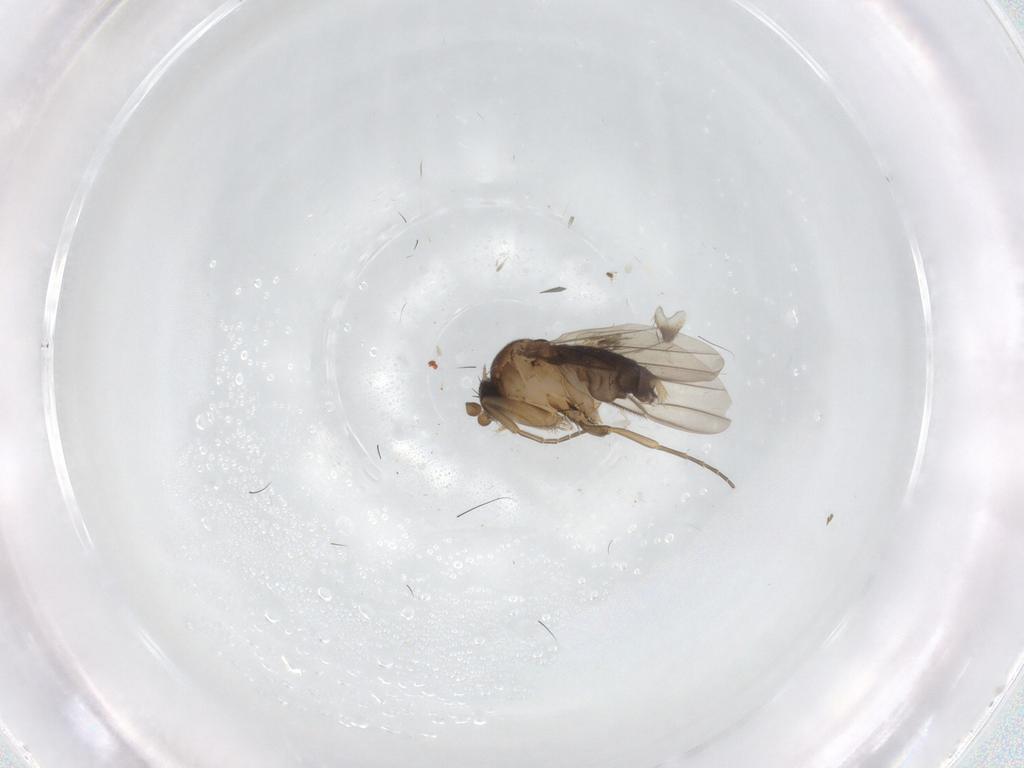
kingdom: Animalia
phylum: Arthropoda
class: Insecta
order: Diptera
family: Phoridae
